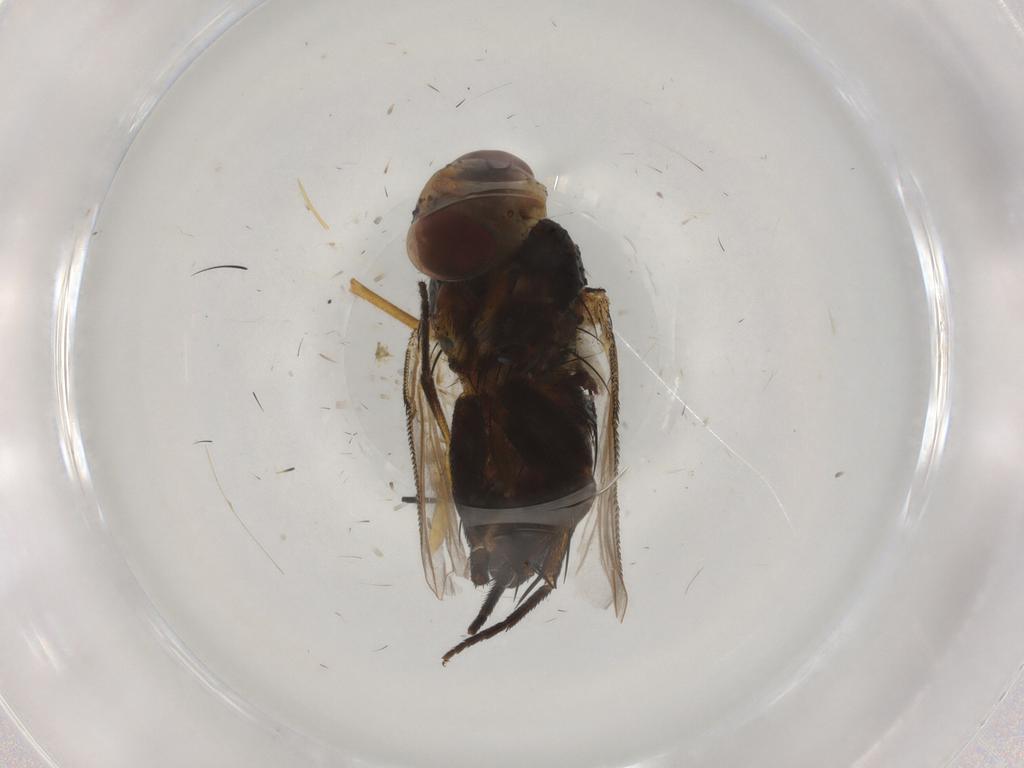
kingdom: Animalia
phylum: Arthropoda
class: Insecta
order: Diptera
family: Muscidae
